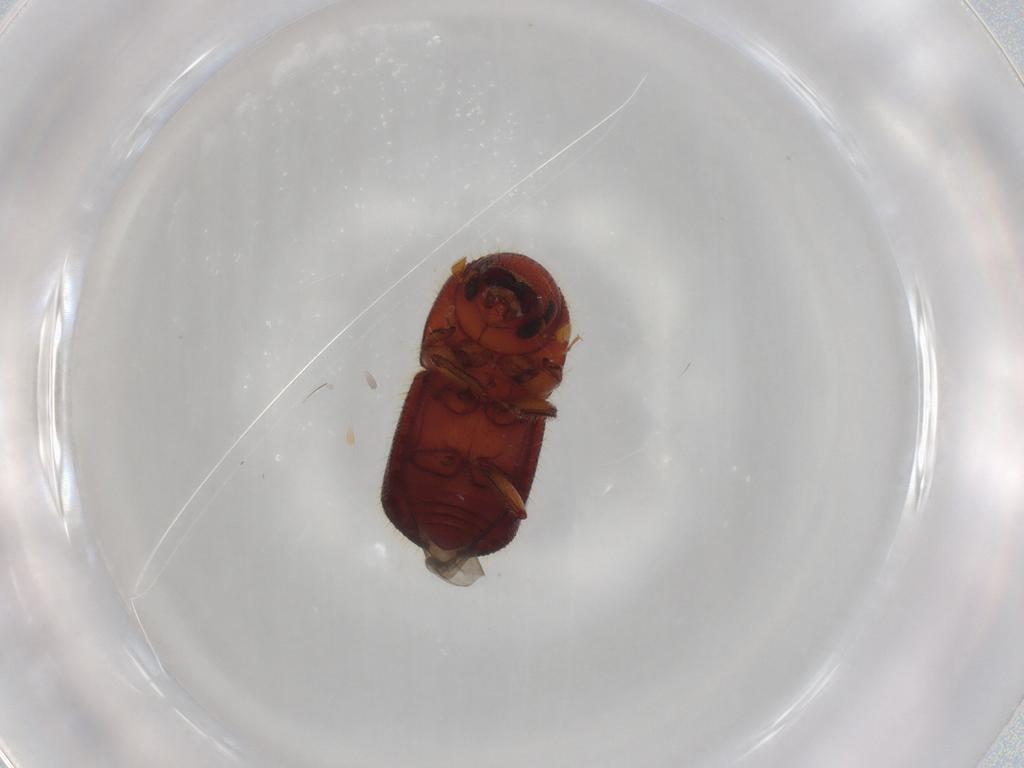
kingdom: Animalia
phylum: Arthropoda
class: Insecta
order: Coleoptera
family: Curculionidae
